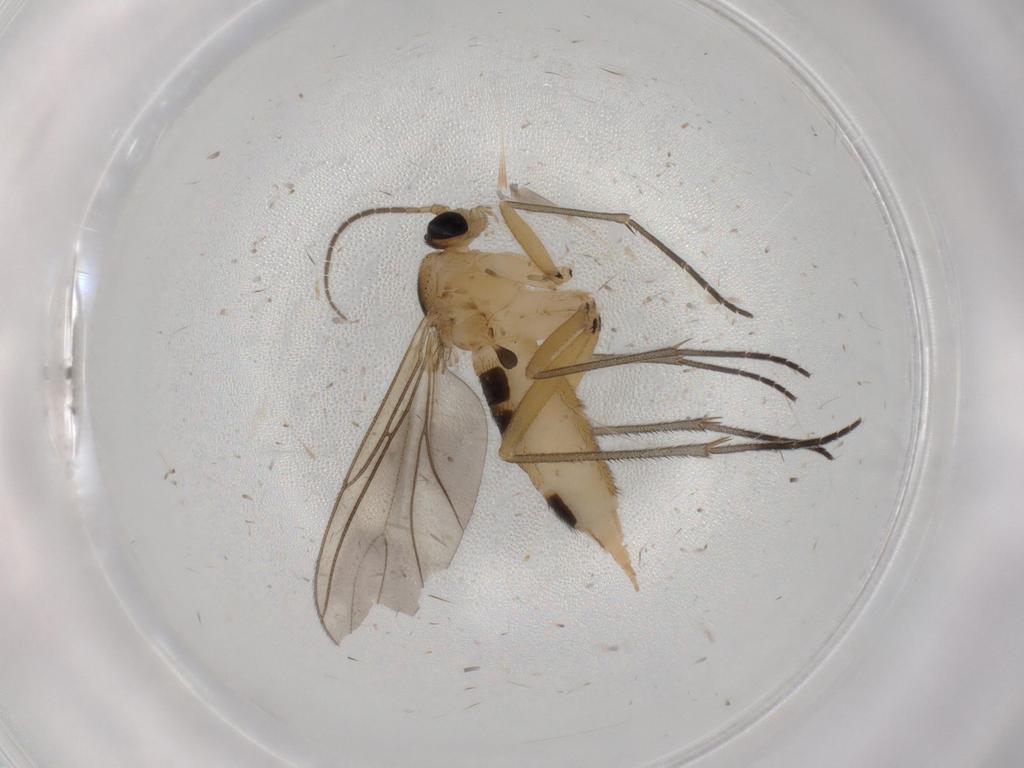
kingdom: Animalia
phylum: Arthropoda
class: Insecta
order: Diptera
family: Sciaridae
